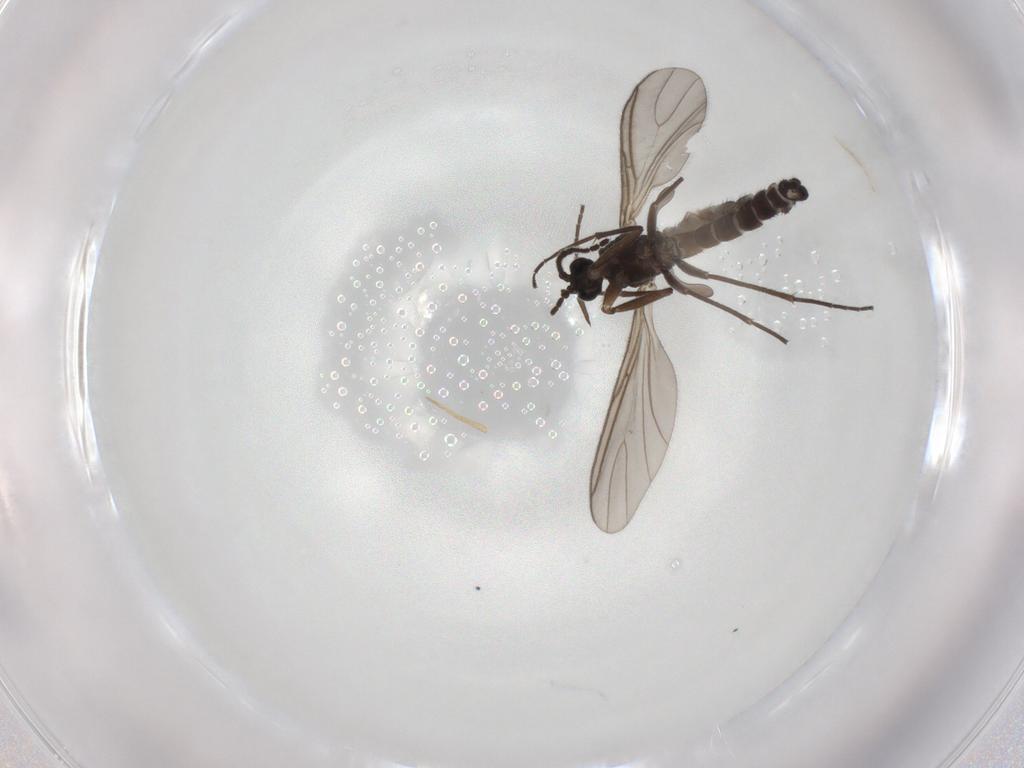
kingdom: Animalia
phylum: Arthropoda
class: Insecta
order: Diptera
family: Sciaridae
